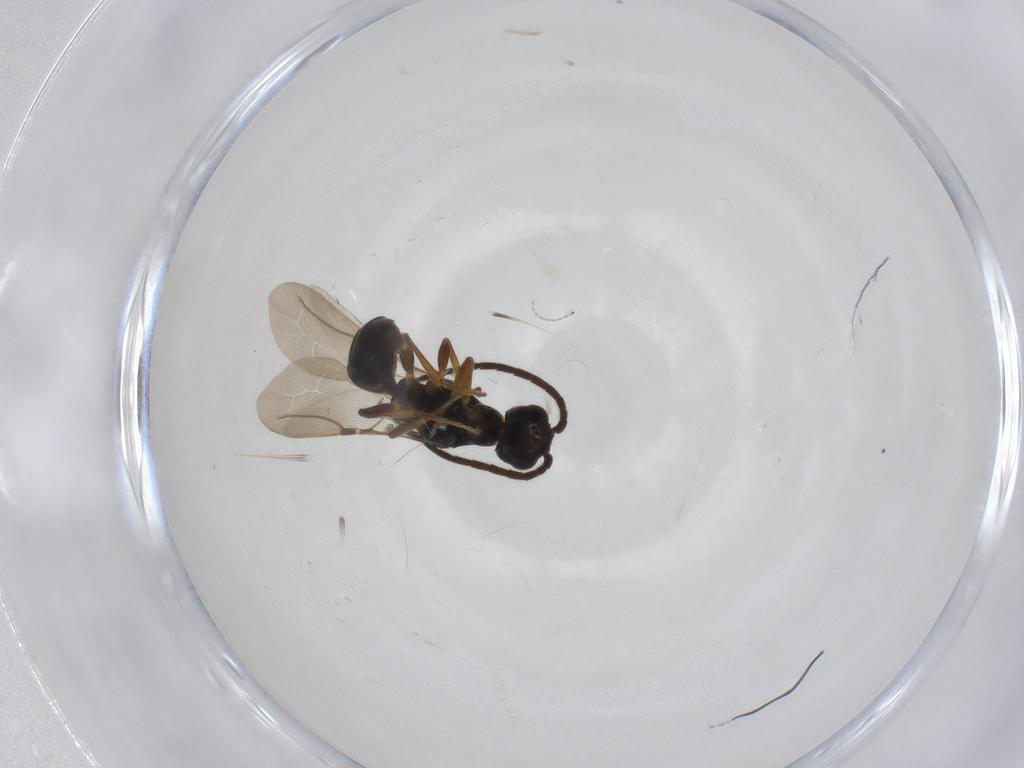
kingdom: Animalia
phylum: Arthropoda
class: Insecta
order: Hymenoptera
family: Bethylidae
